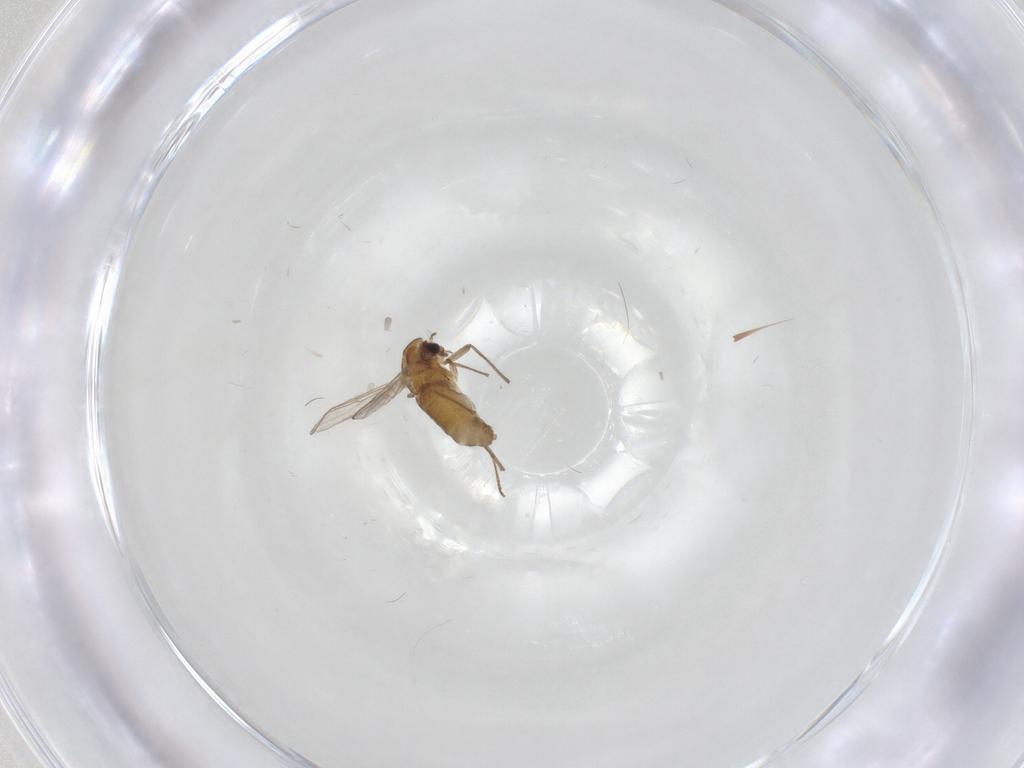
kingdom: Animalia
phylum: Arthropoda
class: Insecta
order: Diptera
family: Chironomidae
